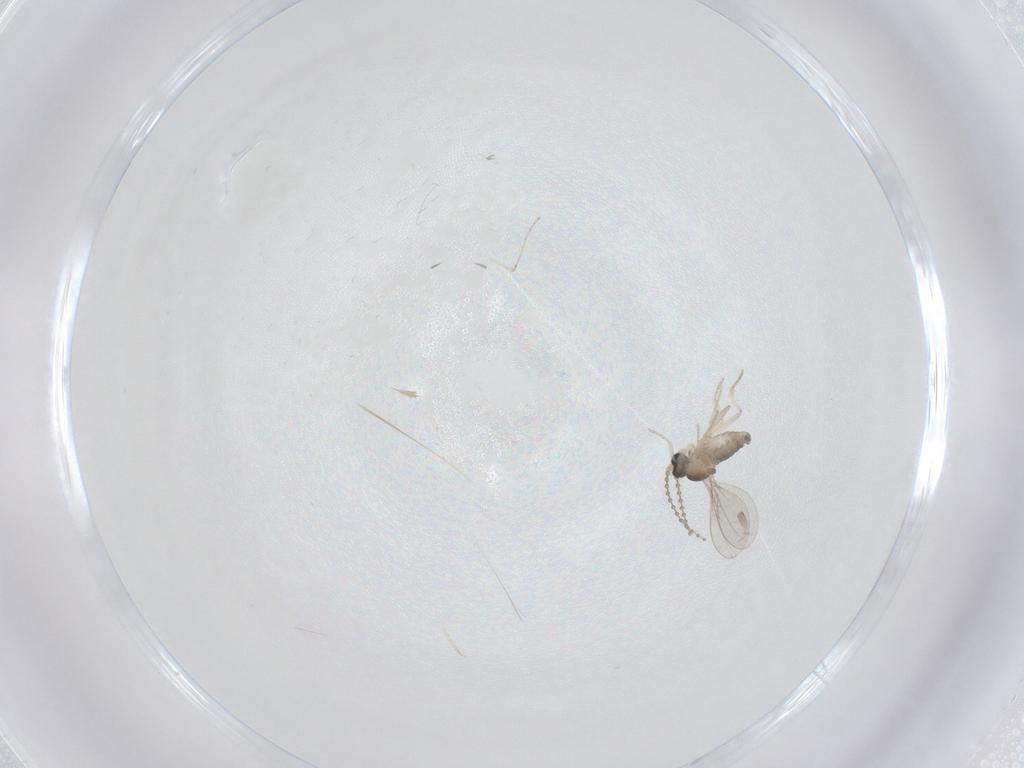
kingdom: Animalia
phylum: Arthropoda
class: Insecta
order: Diptera
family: Cecidomyiidae
